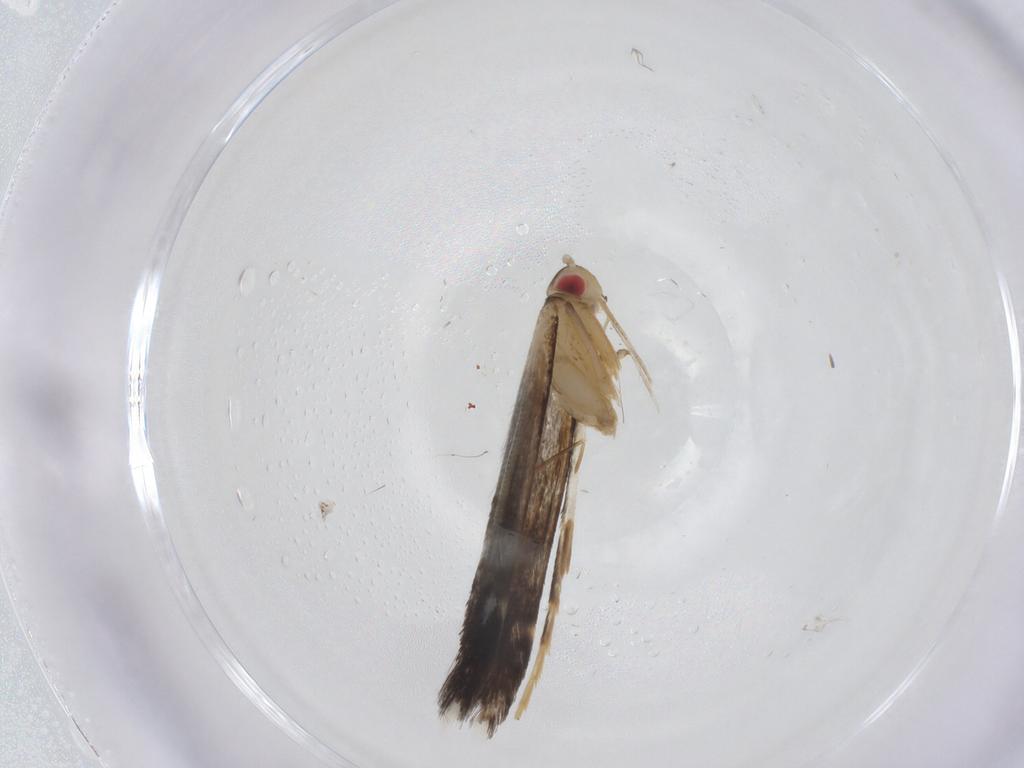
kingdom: Animalia
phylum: Arthropoda
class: Insecta
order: Lepidoptera
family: Cosmopterigidae
